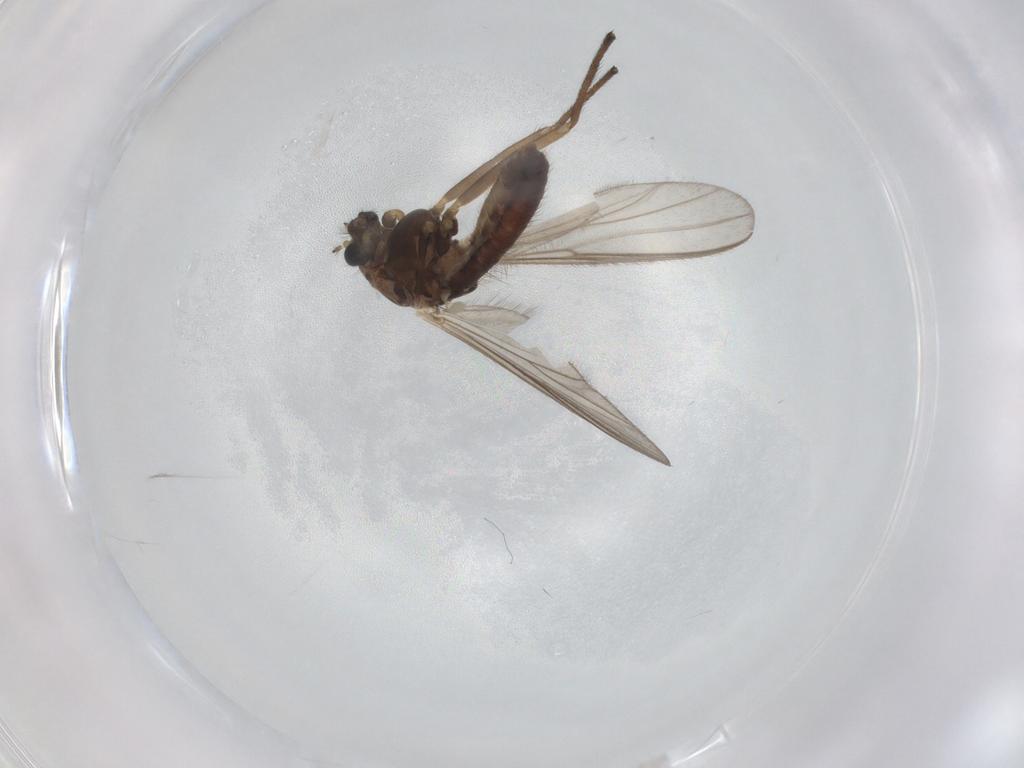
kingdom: Animalia
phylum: Arthropoda
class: Insecta
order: Diptera
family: Chironomidae
